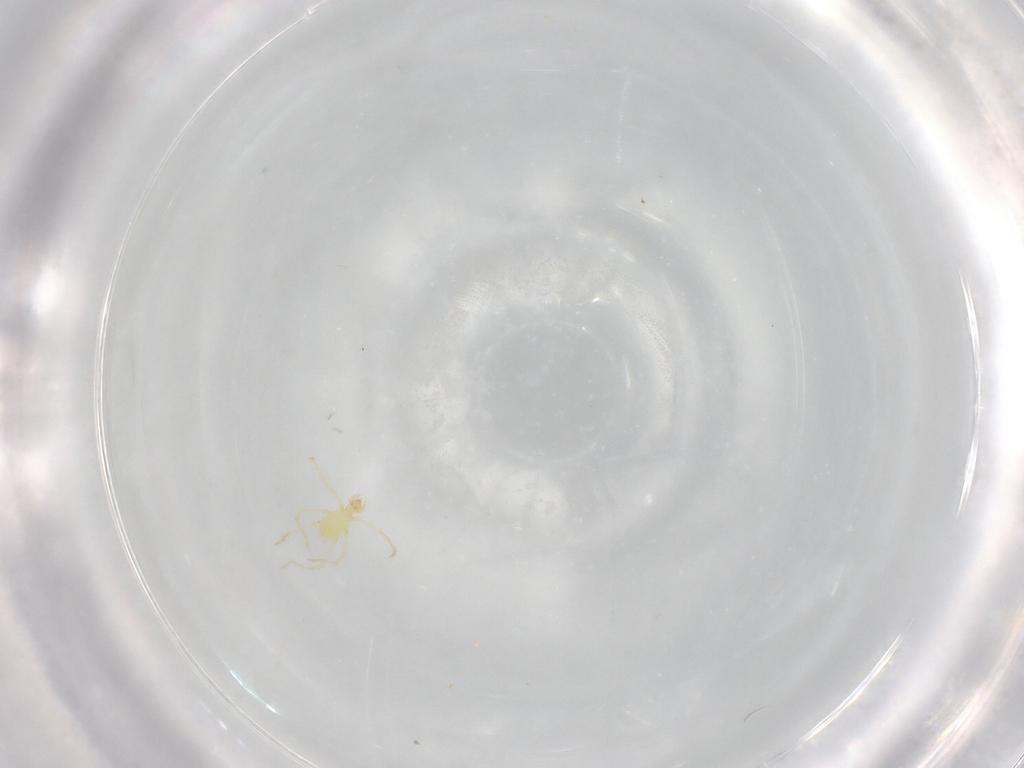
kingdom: Animalia
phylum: Arthropoda
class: Arachnida
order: Trombidiformes
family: Erythraeidae
